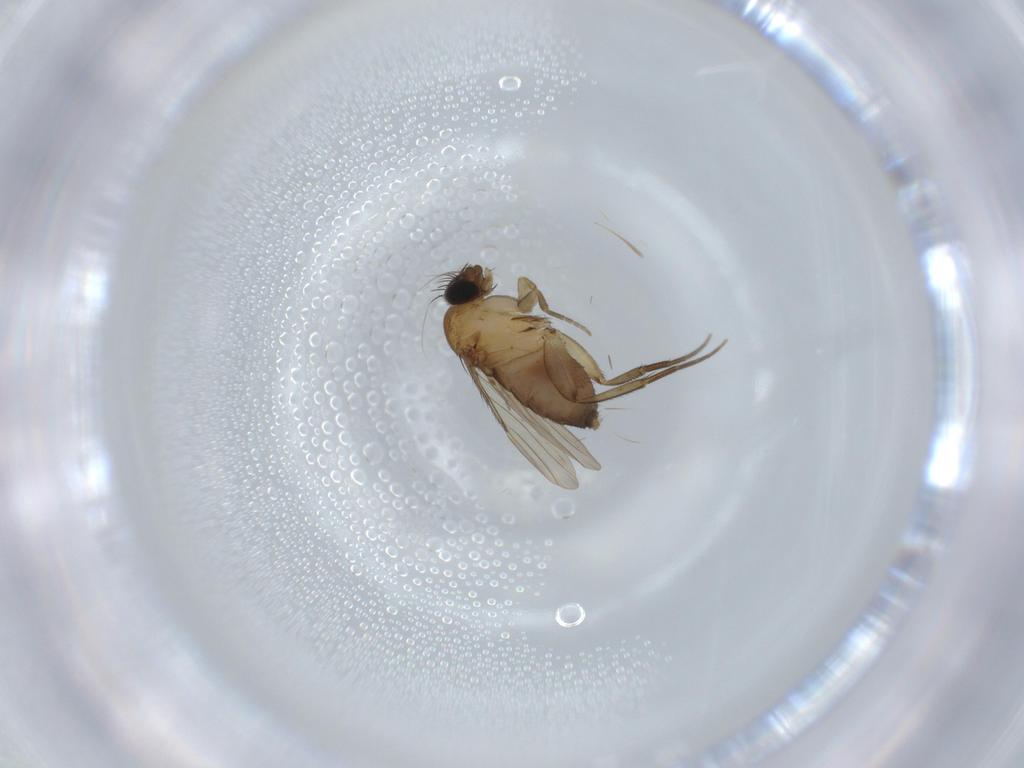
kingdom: Animalia
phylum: Arthropoda
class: Insecta
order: Diptera
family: Phoridae
